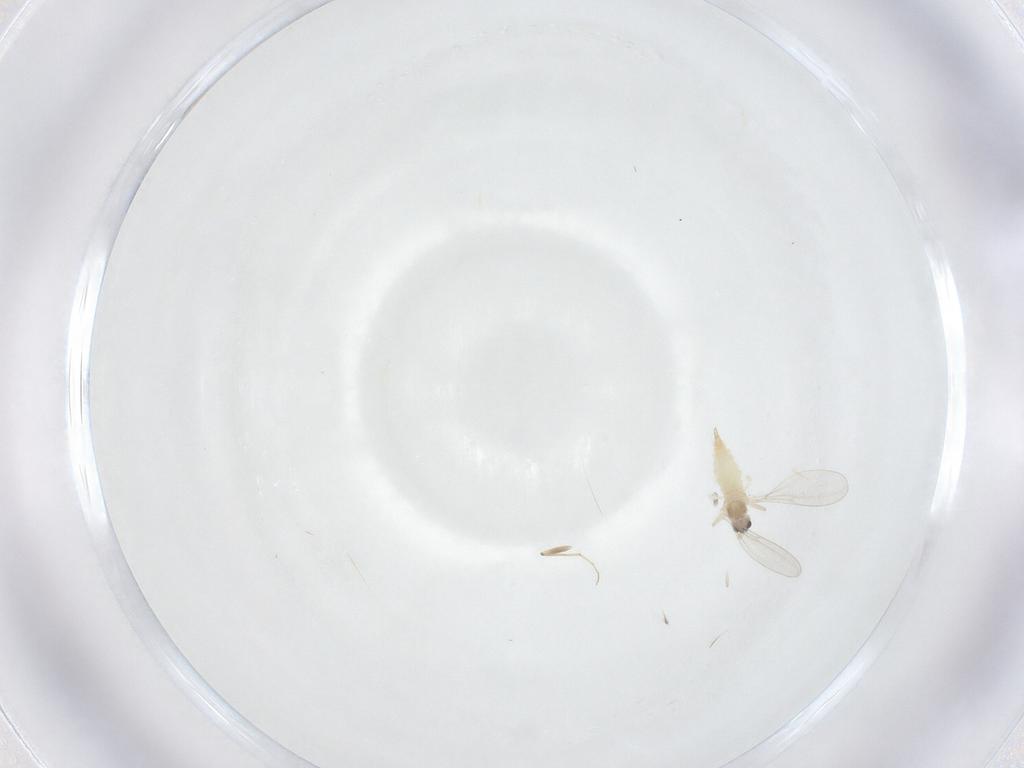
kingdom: Animalia
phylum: Arthropoda
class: Insecta
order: Diptera
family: Cecidomyiidae
